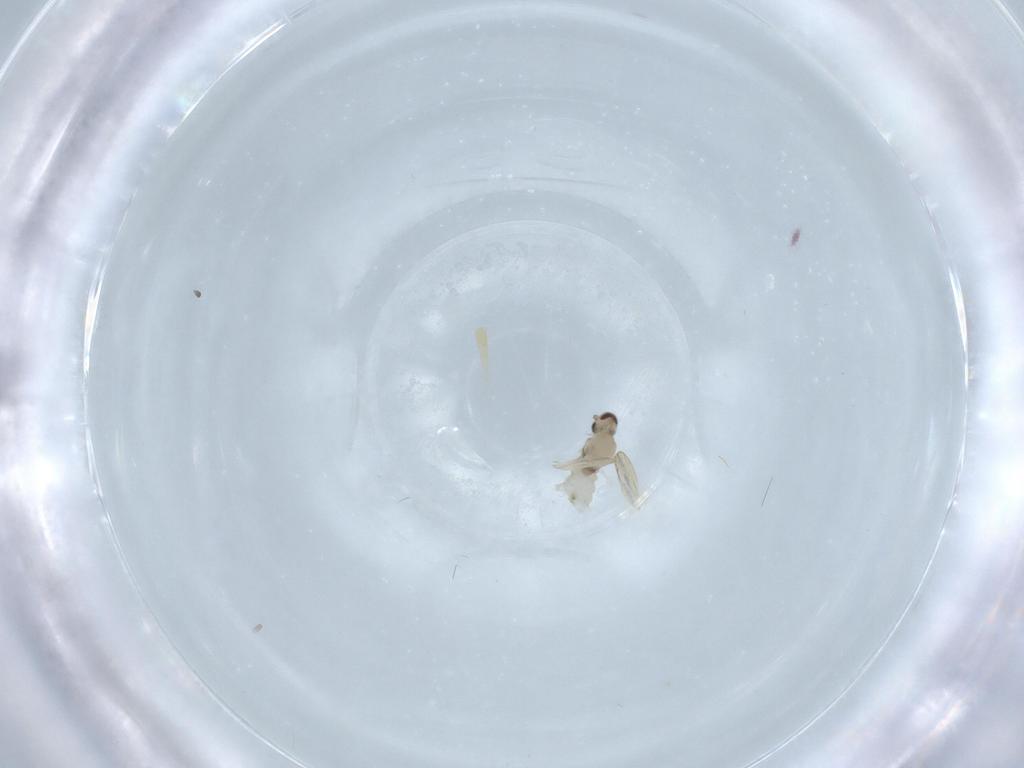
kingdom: Animalia
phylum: Arthropoda
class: Insecta
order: Diptera
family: Cecidomyiidae
